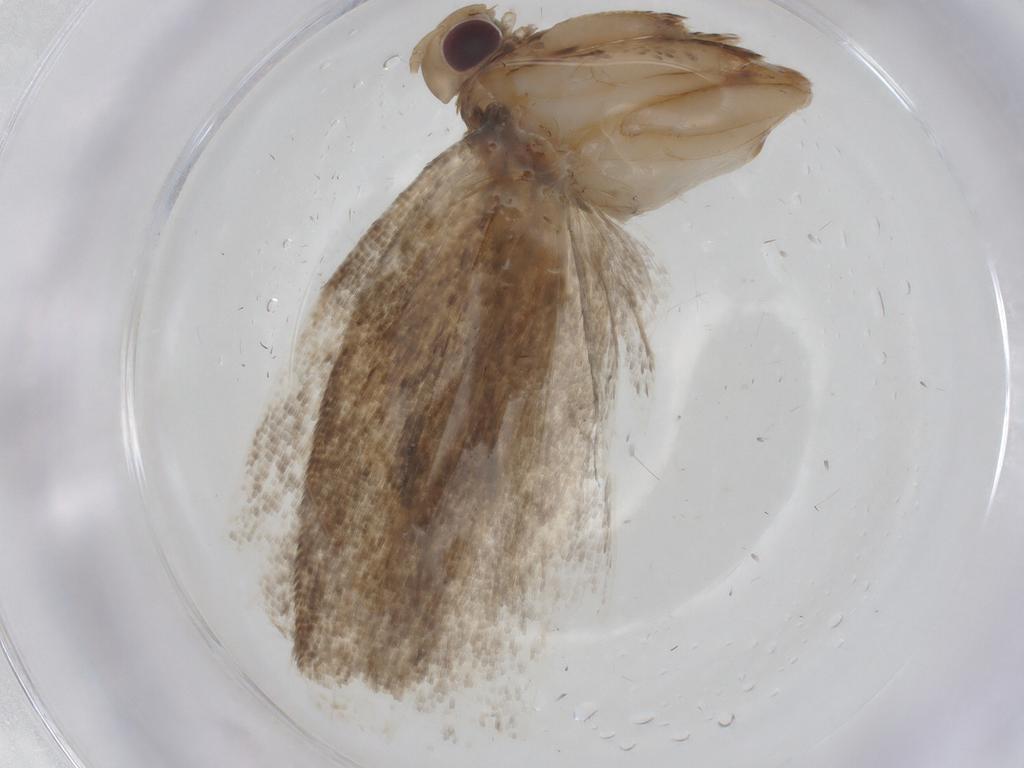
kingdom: Animalia
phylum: Arthropoda
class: Insecta
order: Lepidoptera
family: Depressariidae
